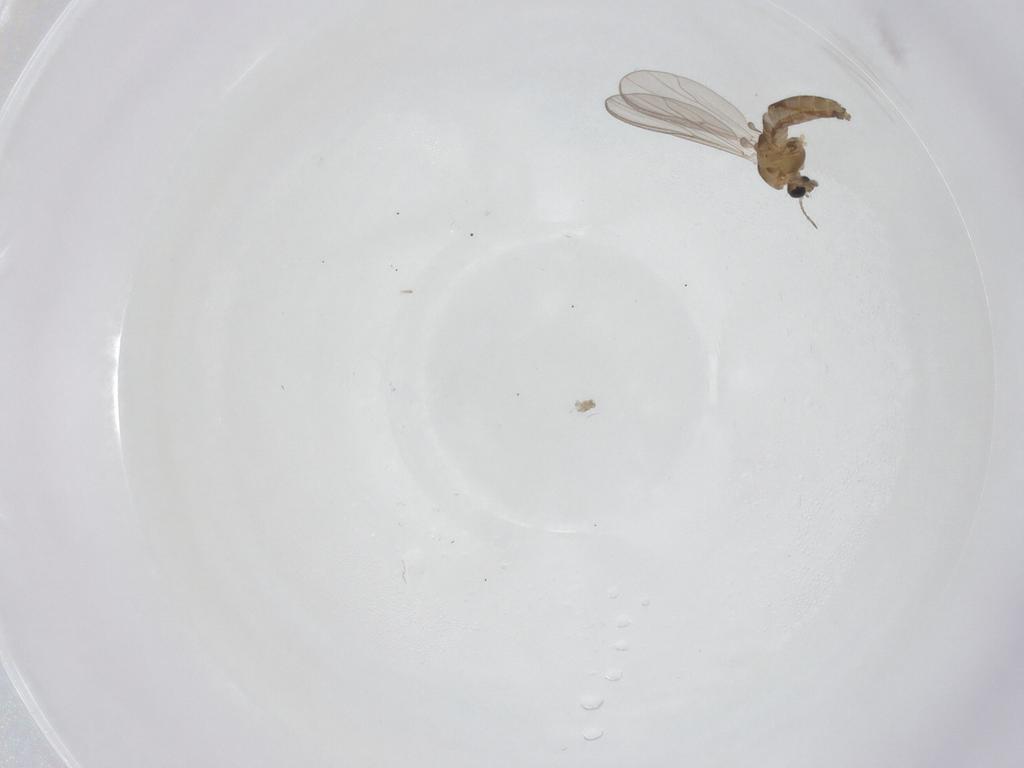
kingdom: Animalia
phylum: Arthropoda
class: Insecta
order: Diptera
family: Chironomidae
